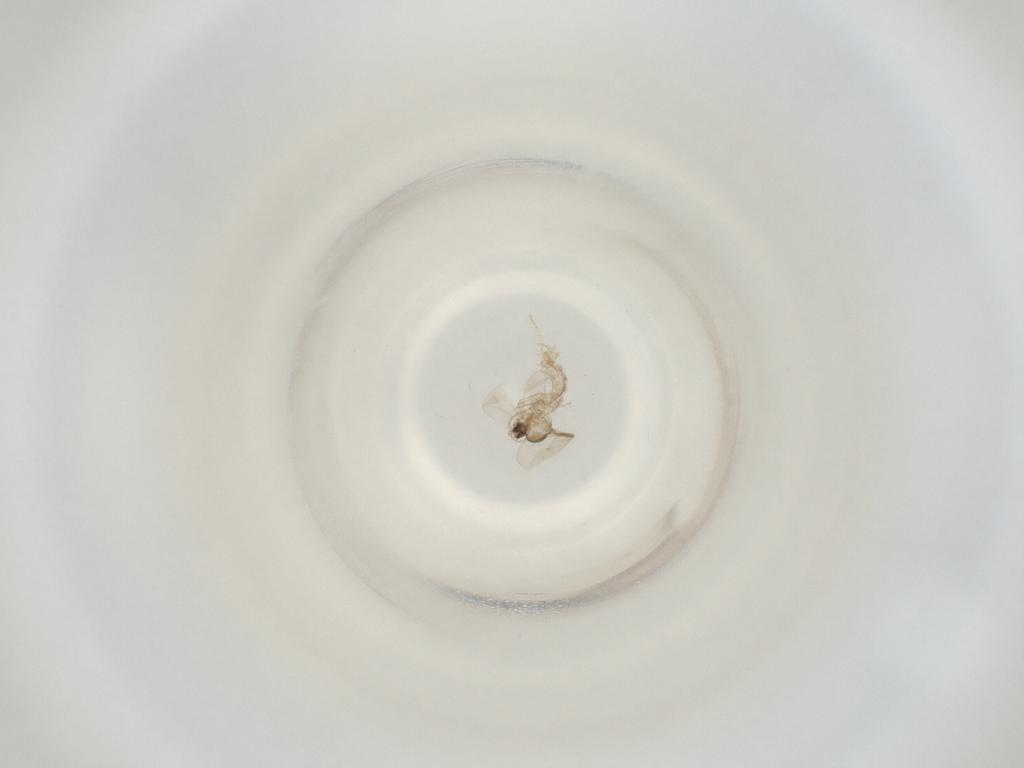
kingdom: Animalia
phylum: Arthropoda
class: Insecta
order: Diptera
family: Cecidomyiidae
